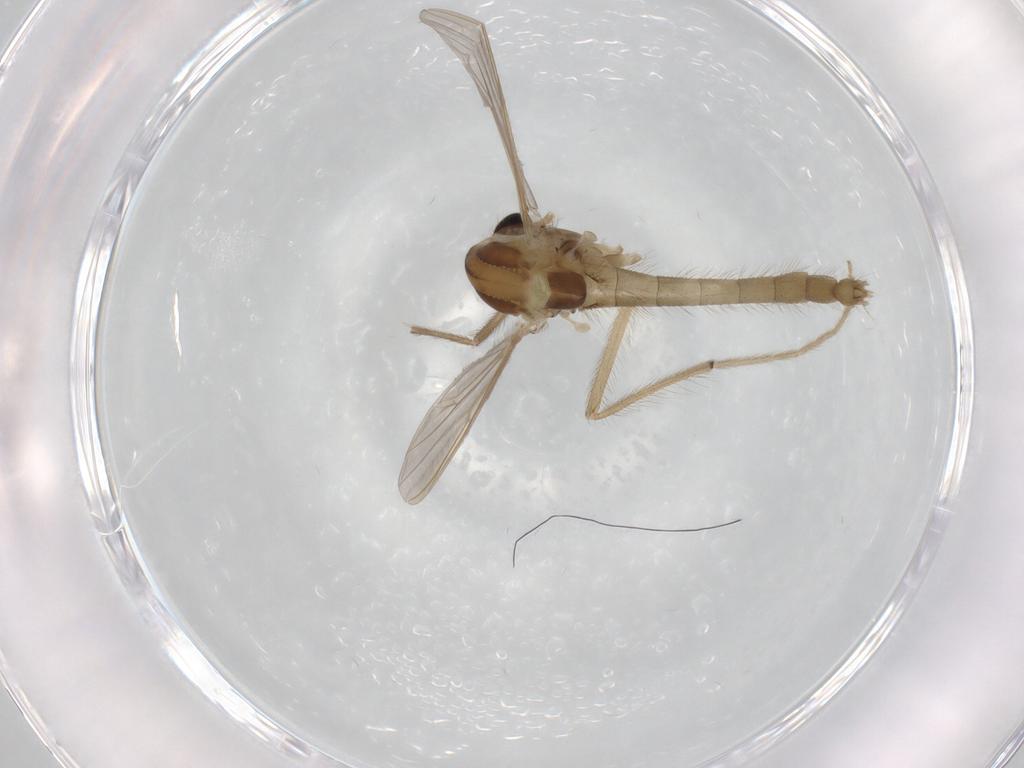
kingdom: Animalia
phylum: Arthropoda
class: Insecta
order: Diptera
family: Chironomidae
